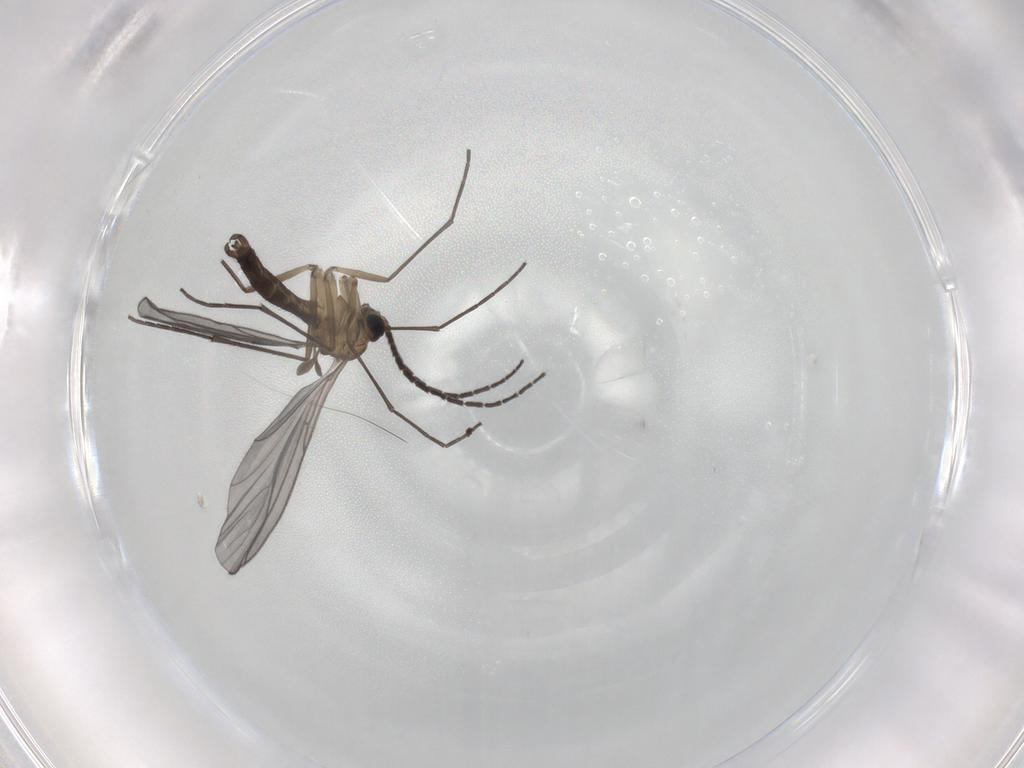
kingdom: Animalia
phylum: Arthropoda
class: Insecta
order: Diptera
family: Sciaridae
